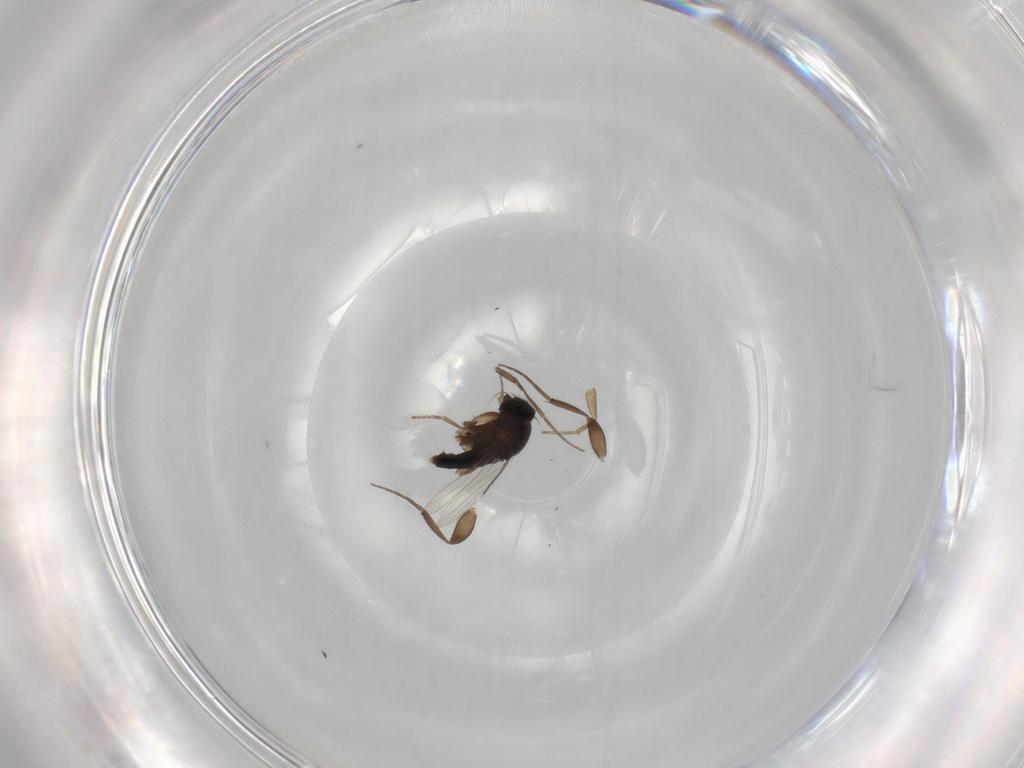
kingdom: Animalia
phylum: Arthropoda
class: Insecta
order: Diptera
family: Phoridae
